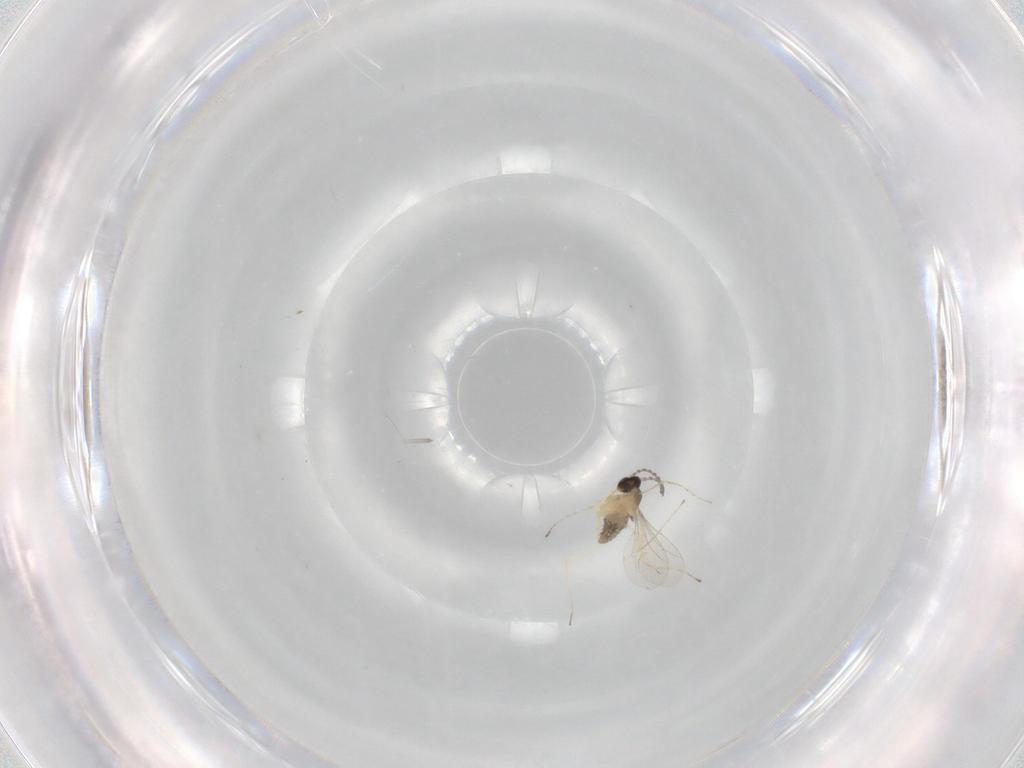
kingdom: Animalia
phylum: Arthropoda
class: Insecta
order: Diptera
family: Cecidomyiidae
